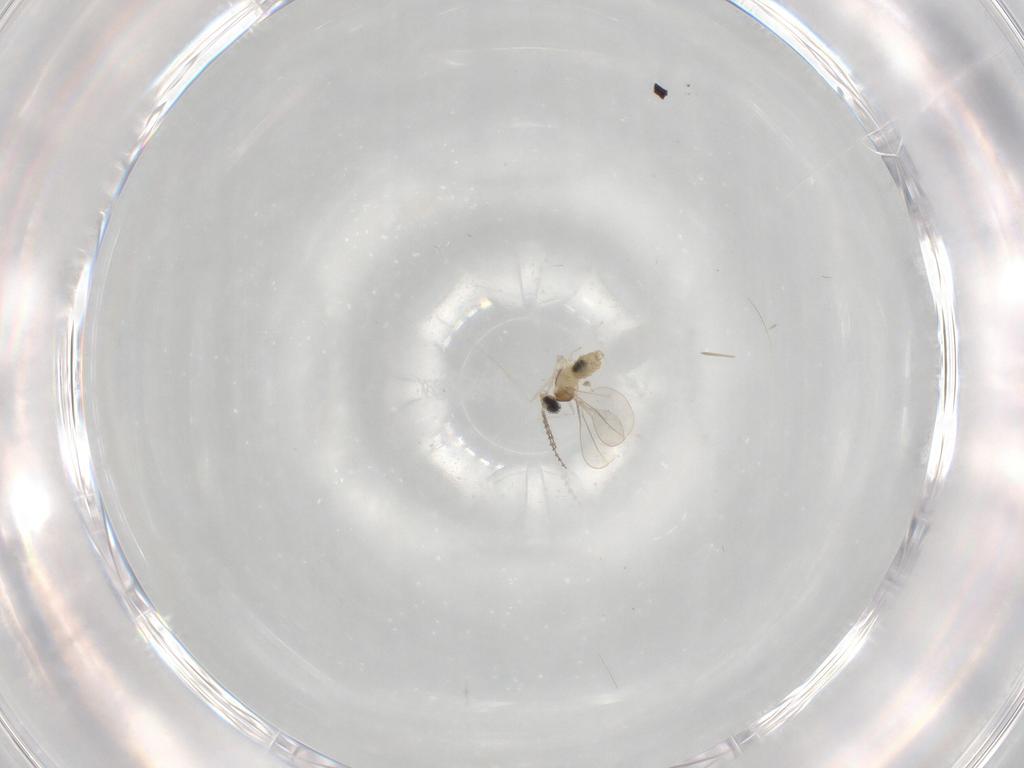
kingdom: Animalia
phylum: Arthropoda
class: Insecta
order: Diptera
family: Cecidomyiidae
